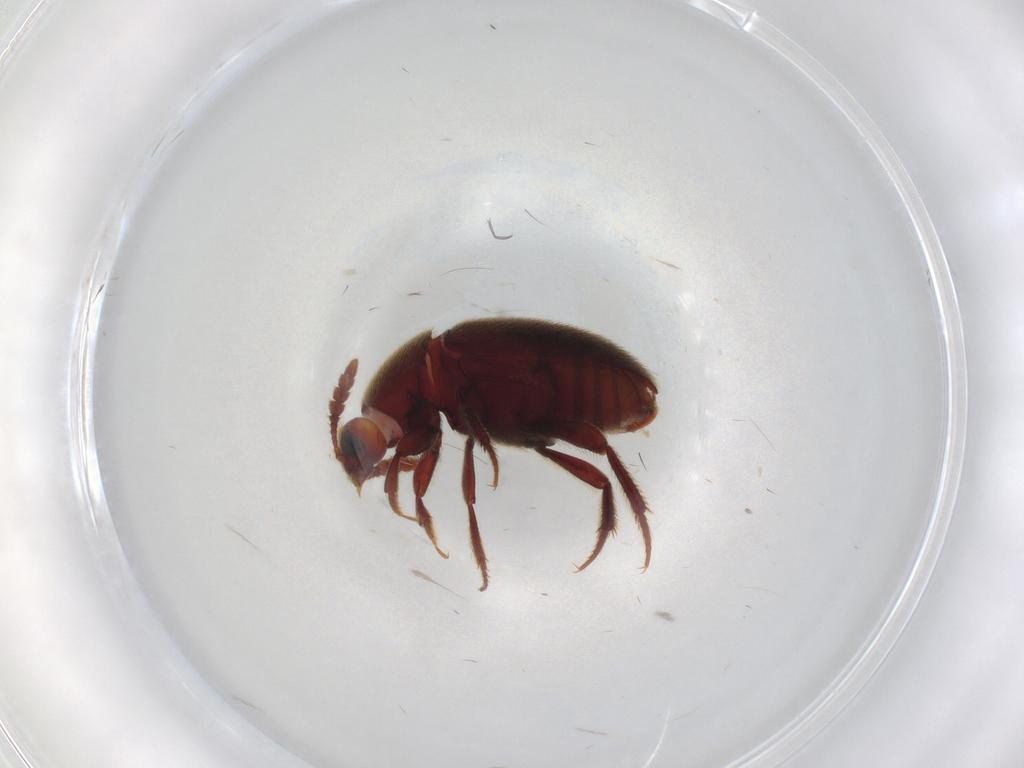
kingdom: Animalia
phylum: Arthropoda
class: Insecta
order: Coleoptera
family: Leiodidae
